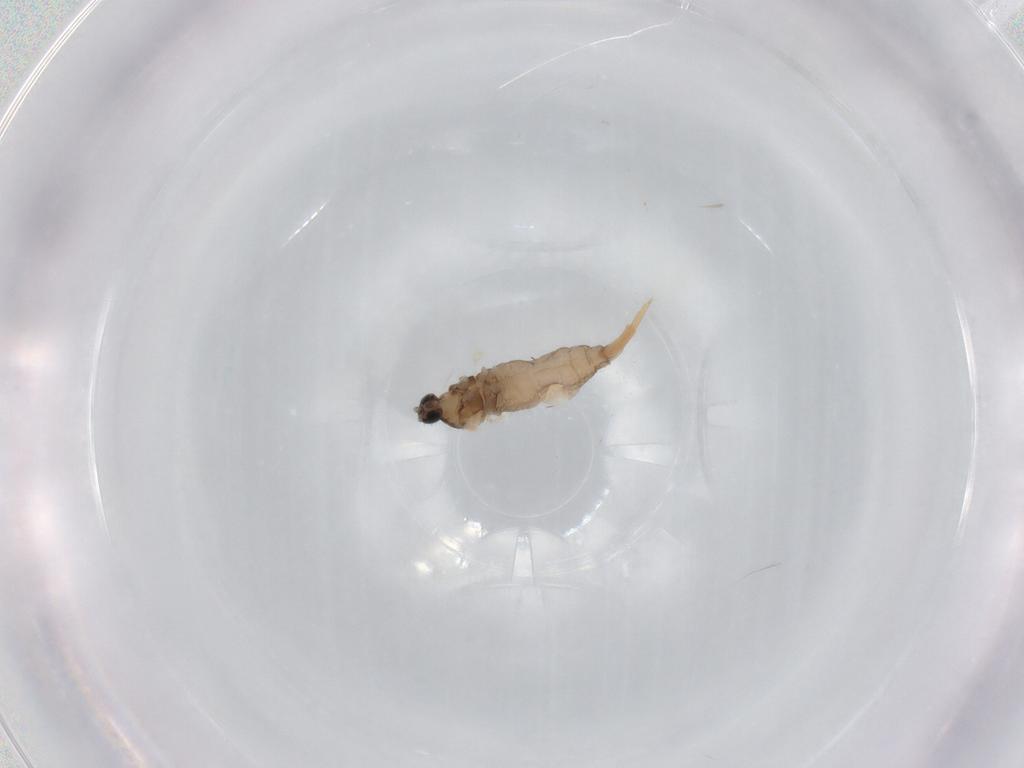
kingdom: Animalia
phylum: Arthropoda
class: Insecta
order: Diptera
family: Cecidomyiidae
